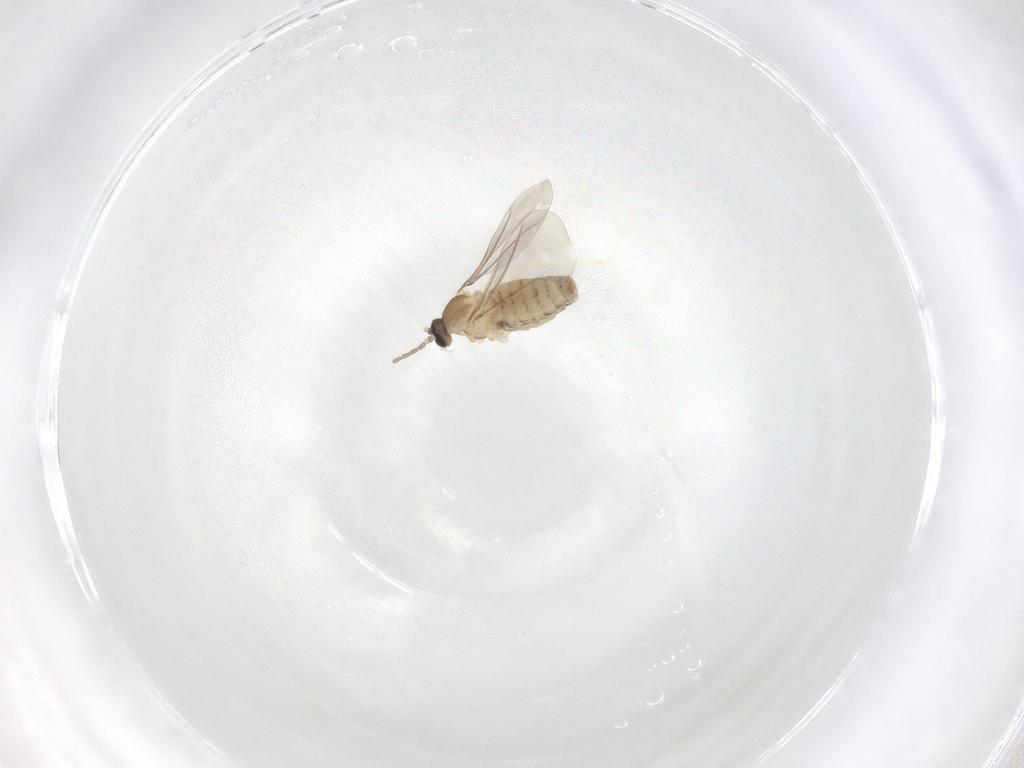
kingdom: Animalia
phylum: Arthropoda
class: Insecta
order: Diptera
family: Cecidomyiidae
